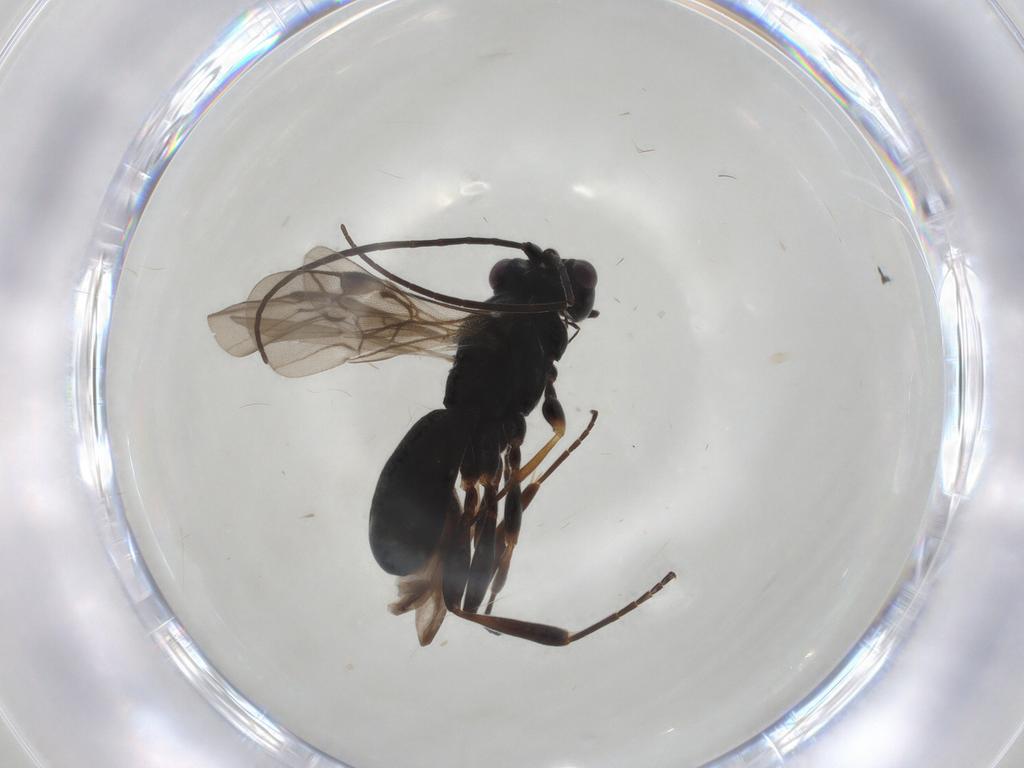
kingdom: Animalia
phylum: Arthropoda
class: Insecta
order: Hymenoptera
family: Braconidae
